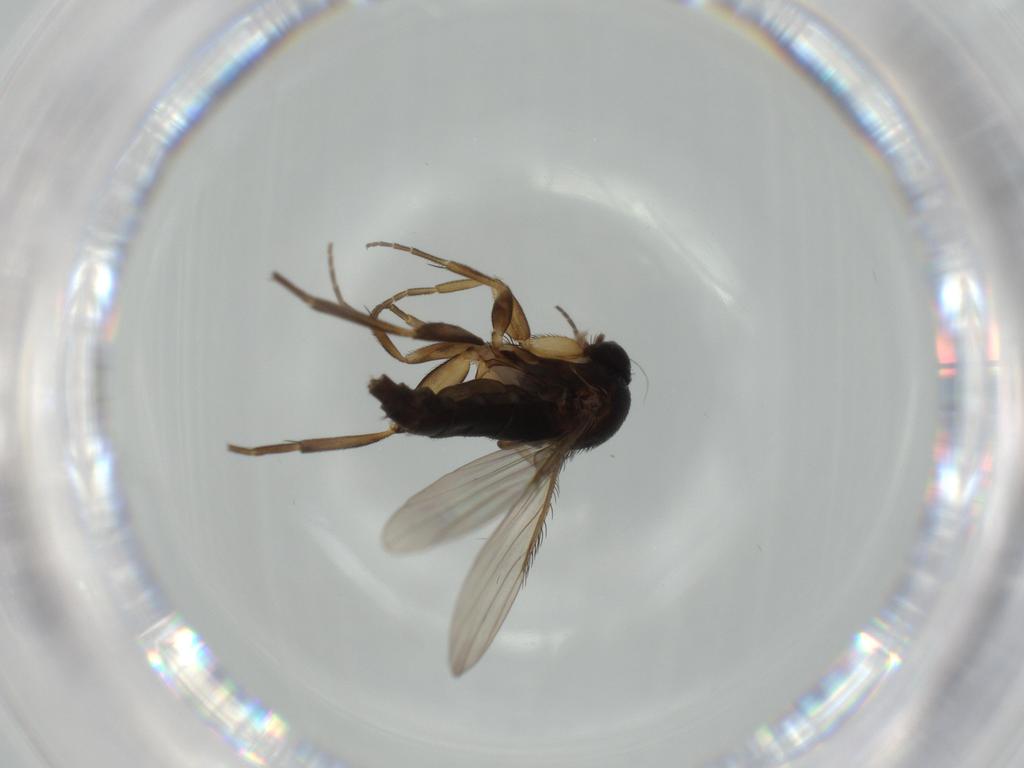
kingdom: Animalia
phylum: Arthropoda
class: Insecta
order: Diptera
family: Phoridae
